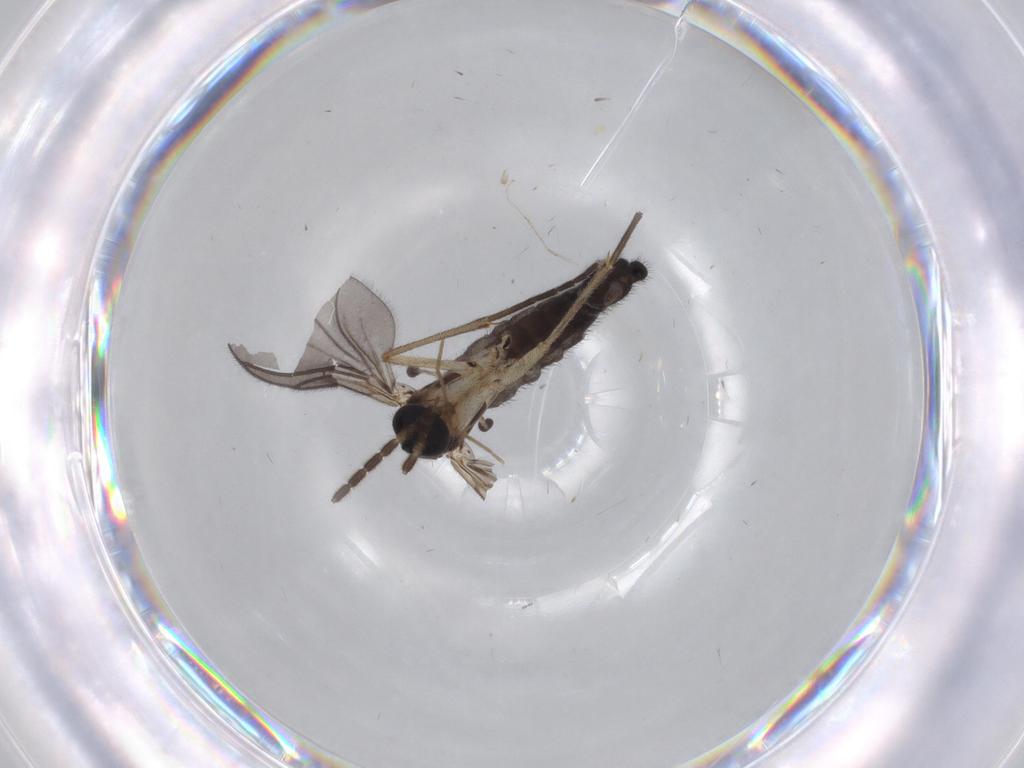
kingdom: Animalia
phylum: Arthropoda
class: Insecta
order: Diptera
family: Sciaridae
